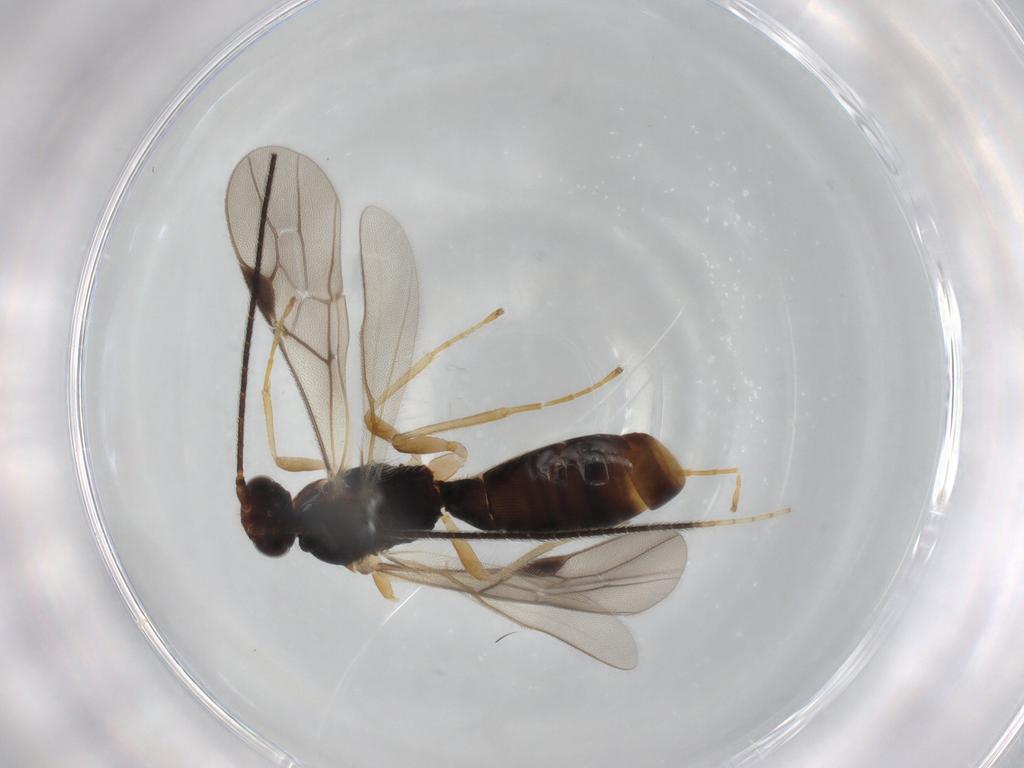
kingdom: Animalia
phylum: Arthropoda
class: Insecta
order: Hymenoptera
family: Braconidae
